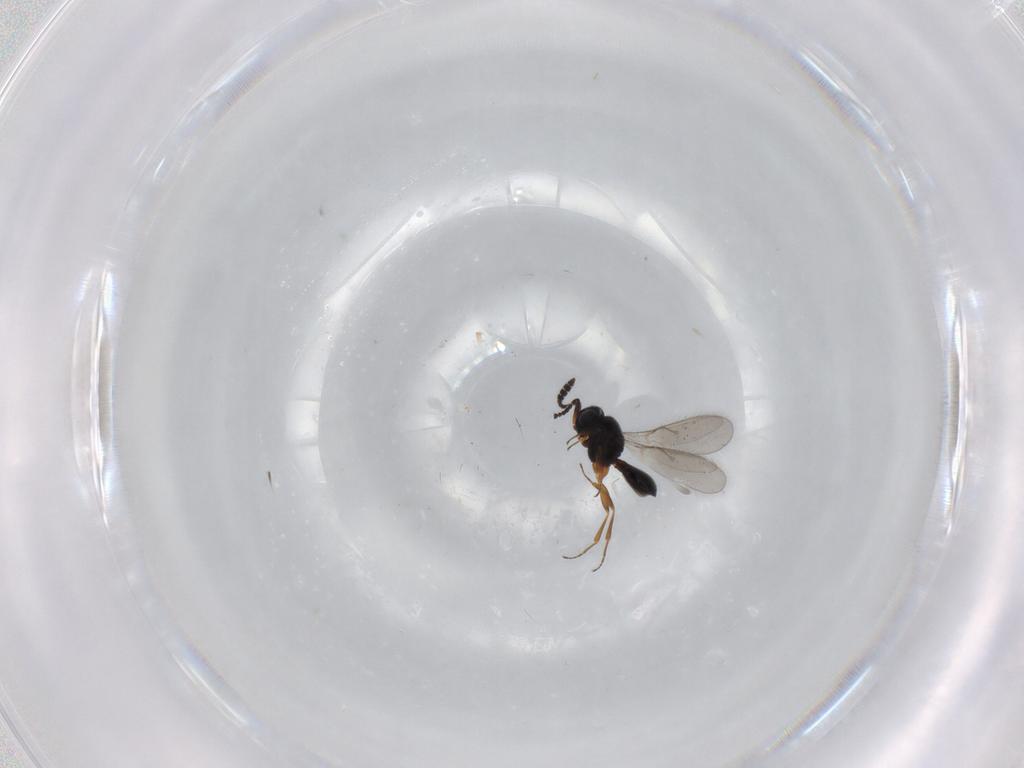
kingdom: Animalia
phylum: Arthropoda
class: Insecta
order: Hymenoptera
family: Scelionidae
